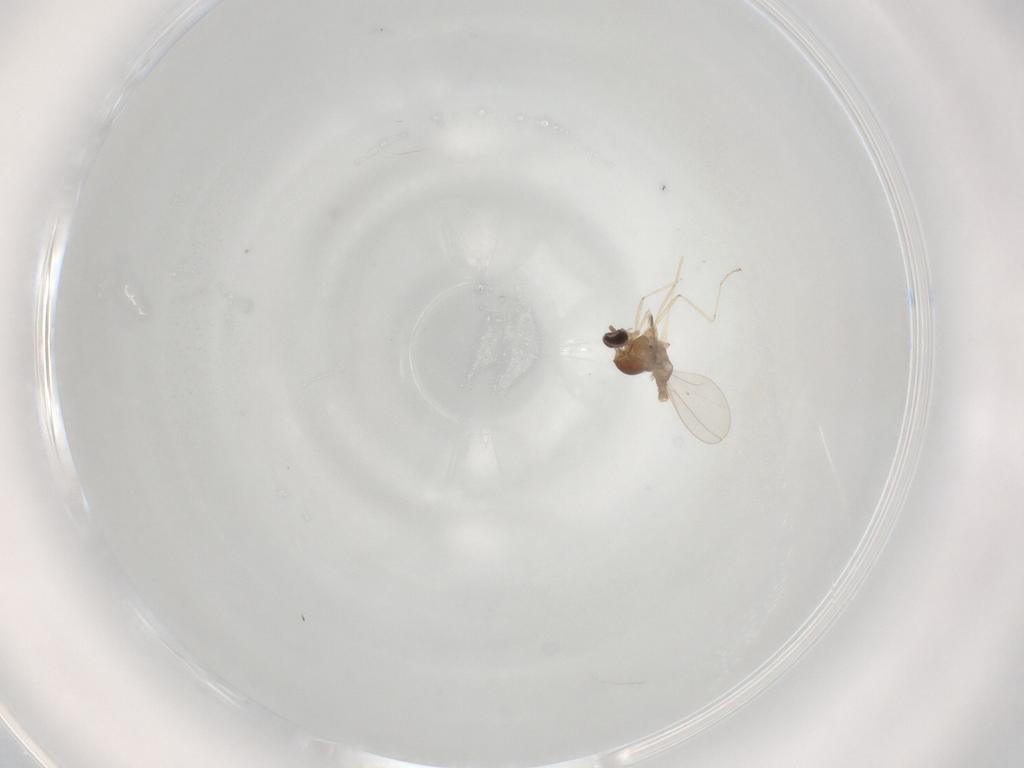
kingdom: Animalia
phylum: Arthropoda
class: Insecta
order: Diptera
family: Cecidomyiidae
